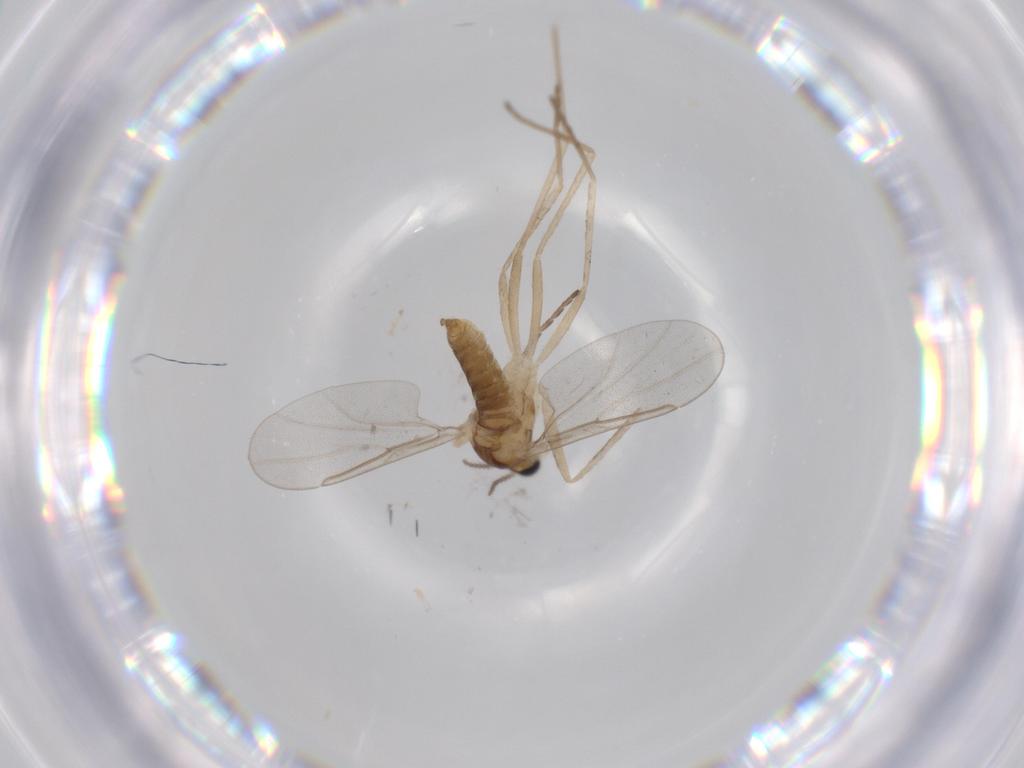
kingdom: Animalia
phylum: Arthropoda
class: Insecta
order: Diptera
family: Cecidomyiidae
